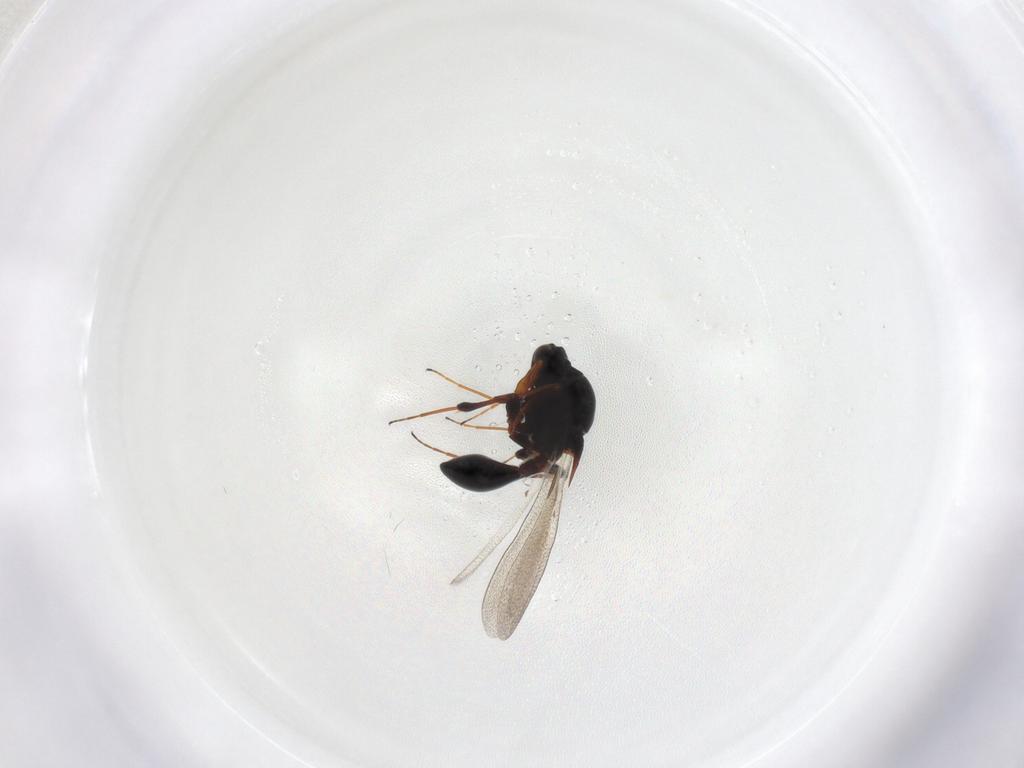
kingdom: Animalia
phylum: Arthropoda
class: Insecta
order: Hymenoptera
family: Platygastridae
